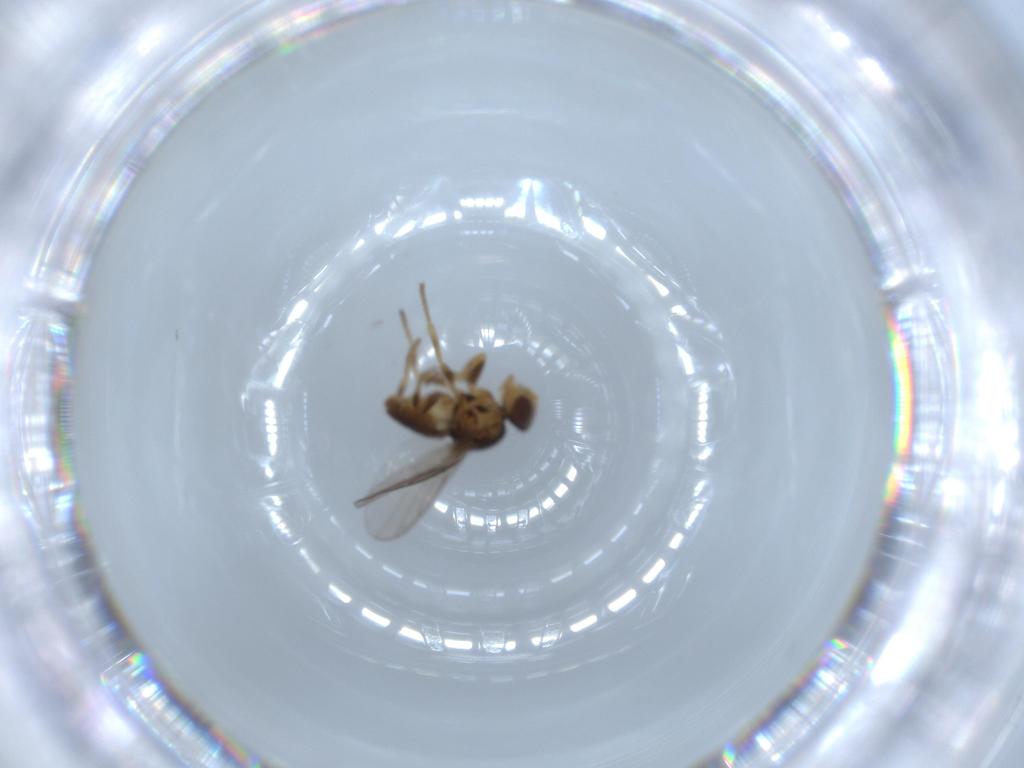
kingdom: Animalia
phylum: Arthropoda
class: Insecta
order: Diptera
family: Chloropidae
